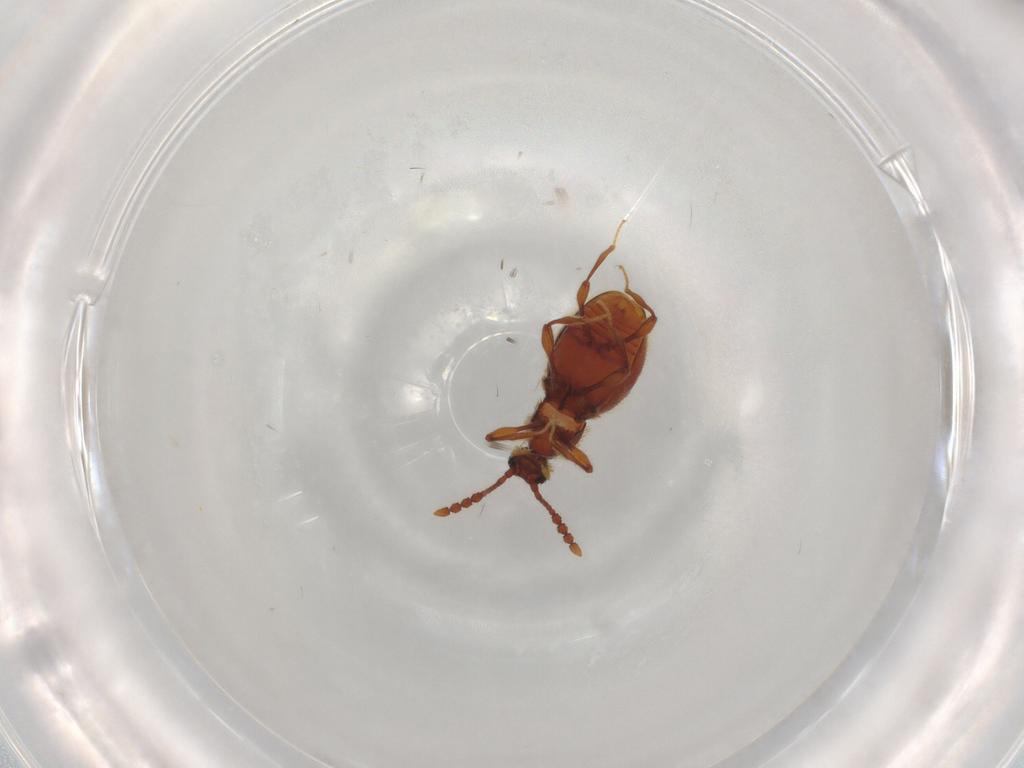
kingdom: Animalia
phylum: Arthropoda
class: Insecta
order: Coleoptera
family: Staphylinidae
